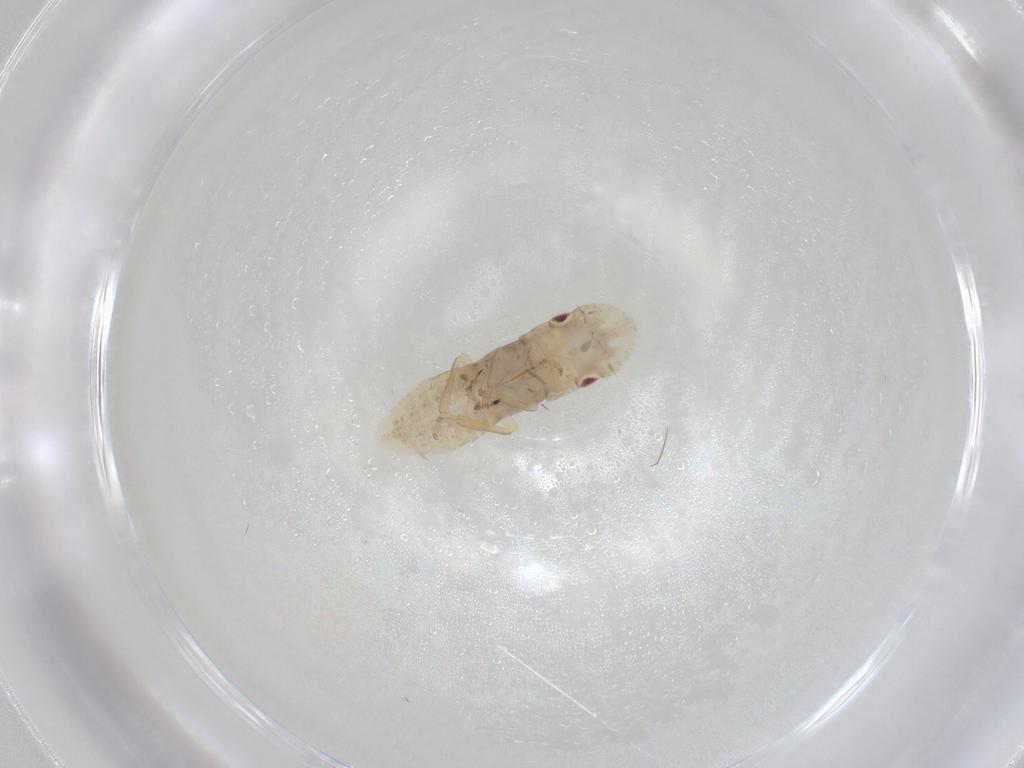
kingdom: Animalia
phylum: Arthropoda
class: Insecta
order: Hemiptera
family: Aleyrodidae
